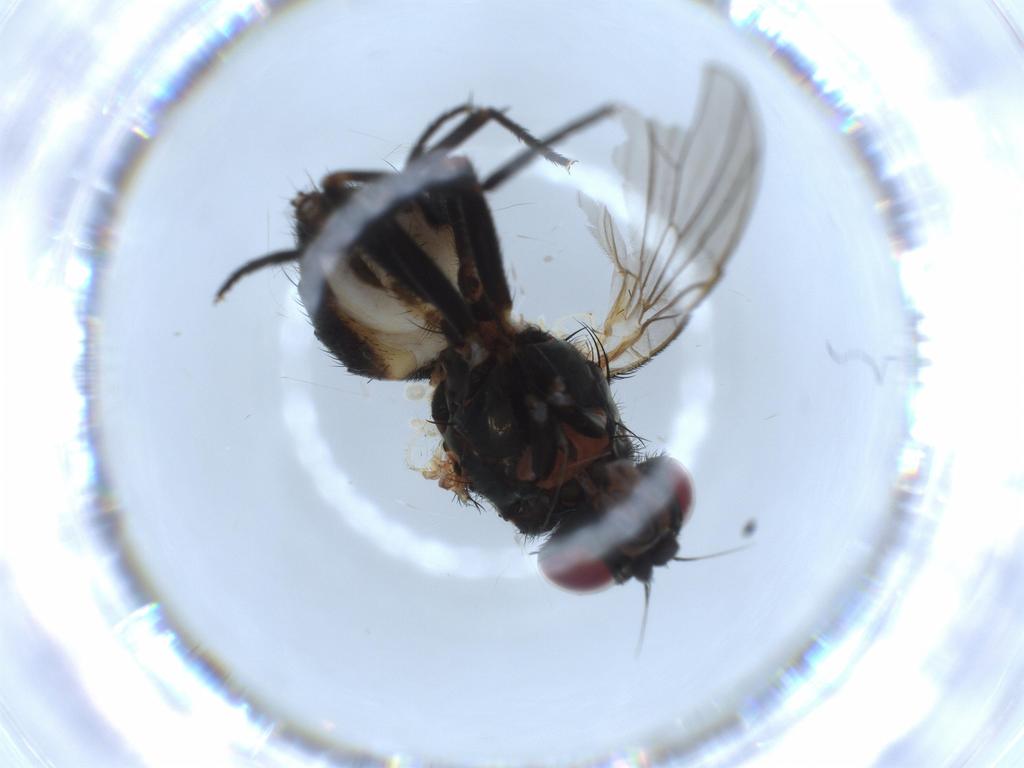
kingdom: Animalia
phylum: Arthropoda
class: Insecta
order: Diptera
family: Fannia
